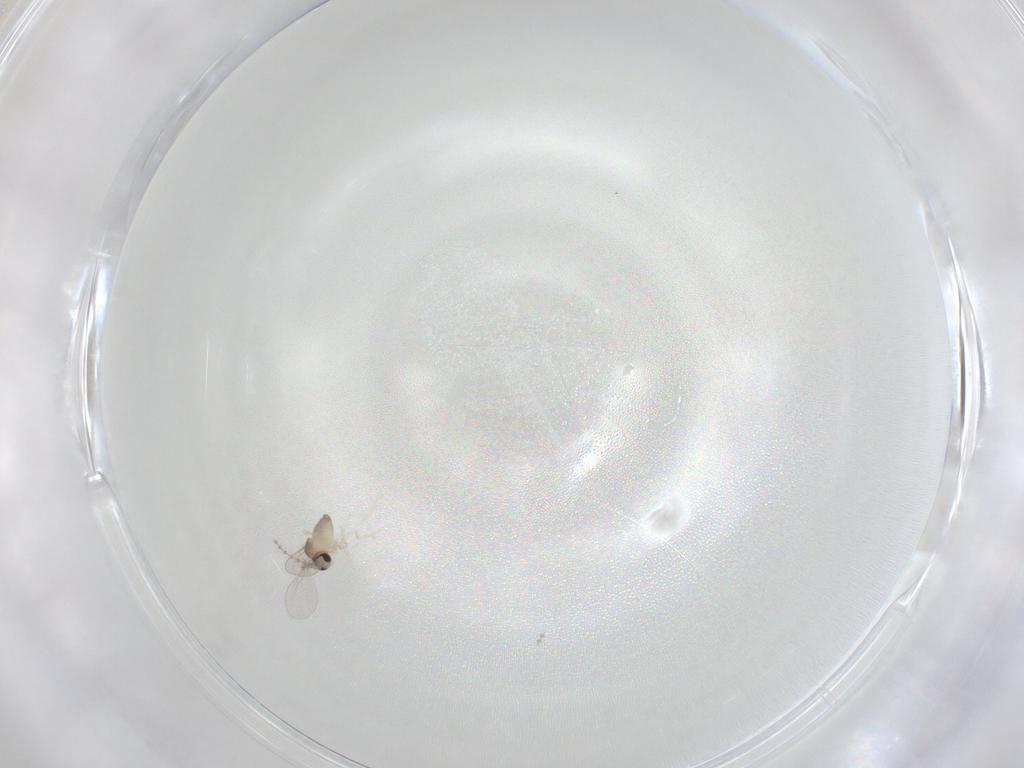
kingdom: Animalia
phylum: Arthropoda
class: Insecta
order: Diptera
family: Cecidomyiidae
